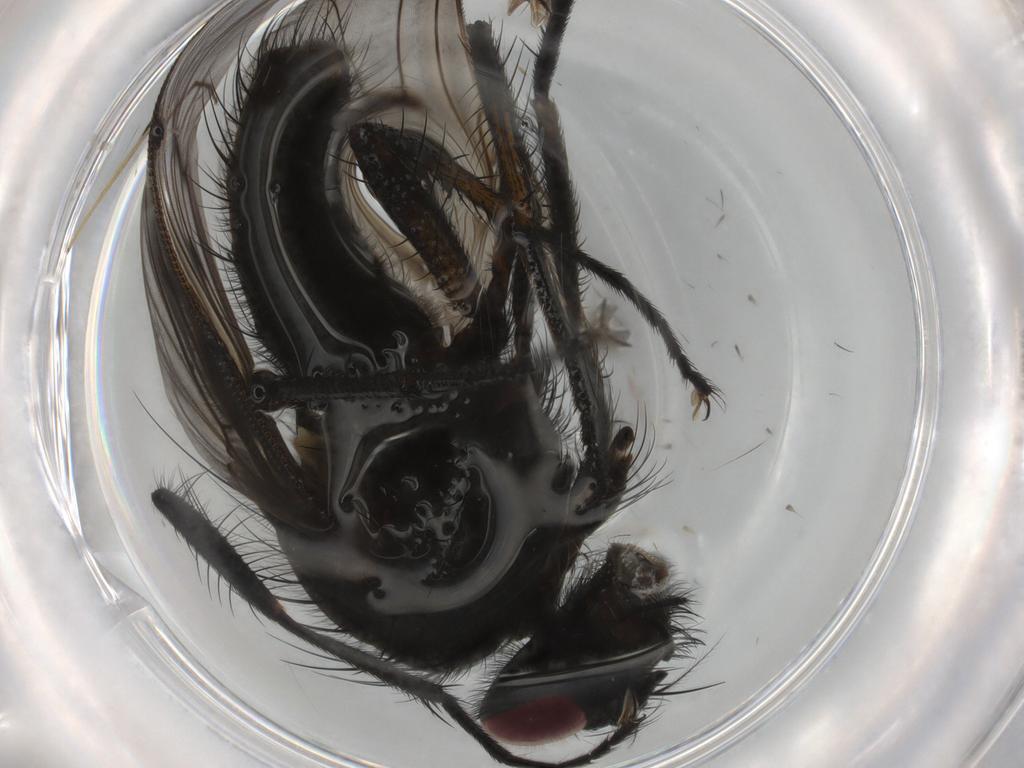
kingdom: Animalia
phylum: Arthropoda
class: Insecta
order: Diptera
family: Muscidae
